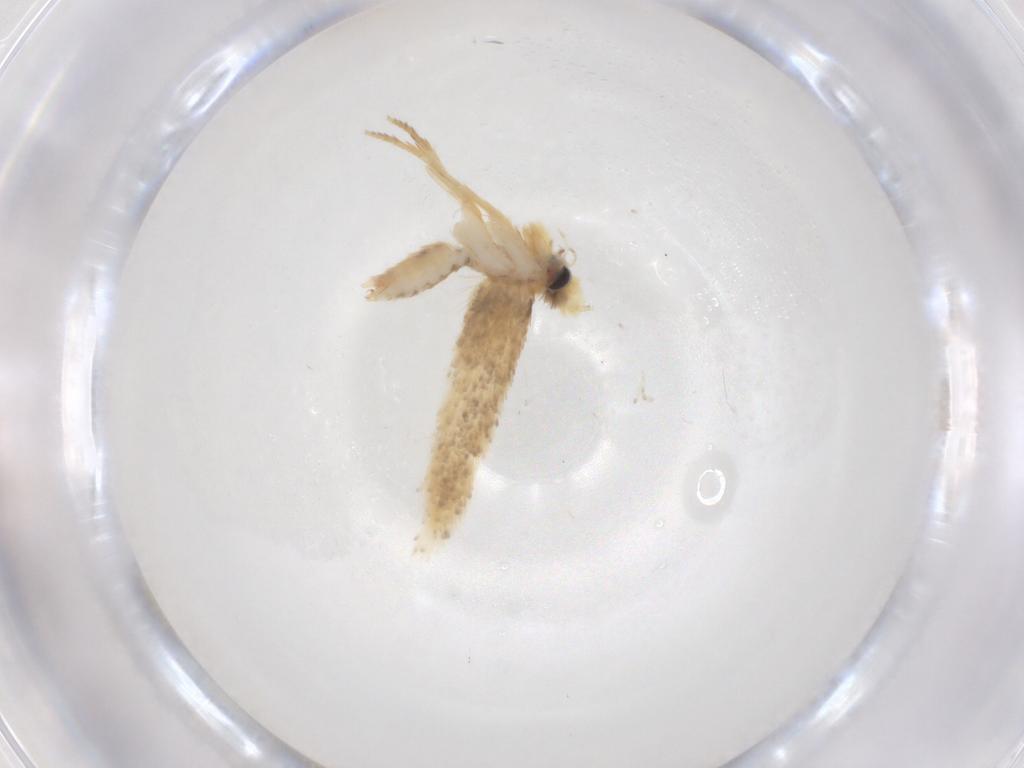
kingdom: Animalia
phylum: Arthropoda
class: Insecta
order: Lepidoptera
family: Nepticulidae
